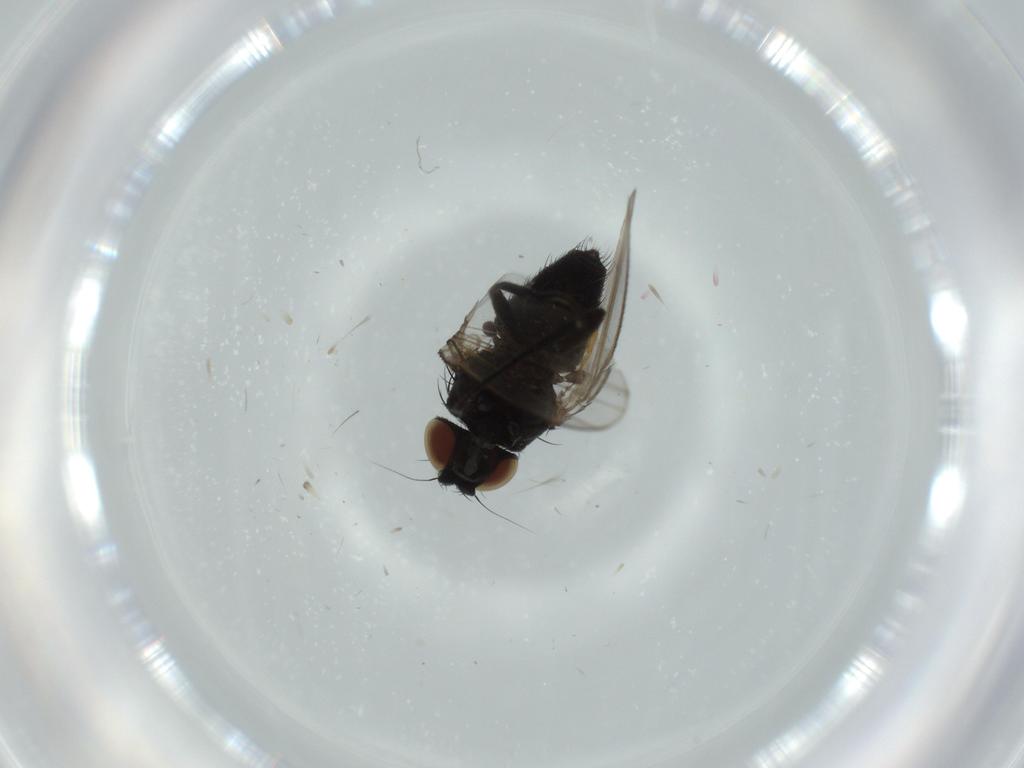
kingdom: Animalia
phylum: Arthropoda
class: Insecta
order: Diptera
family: Milichiidae
